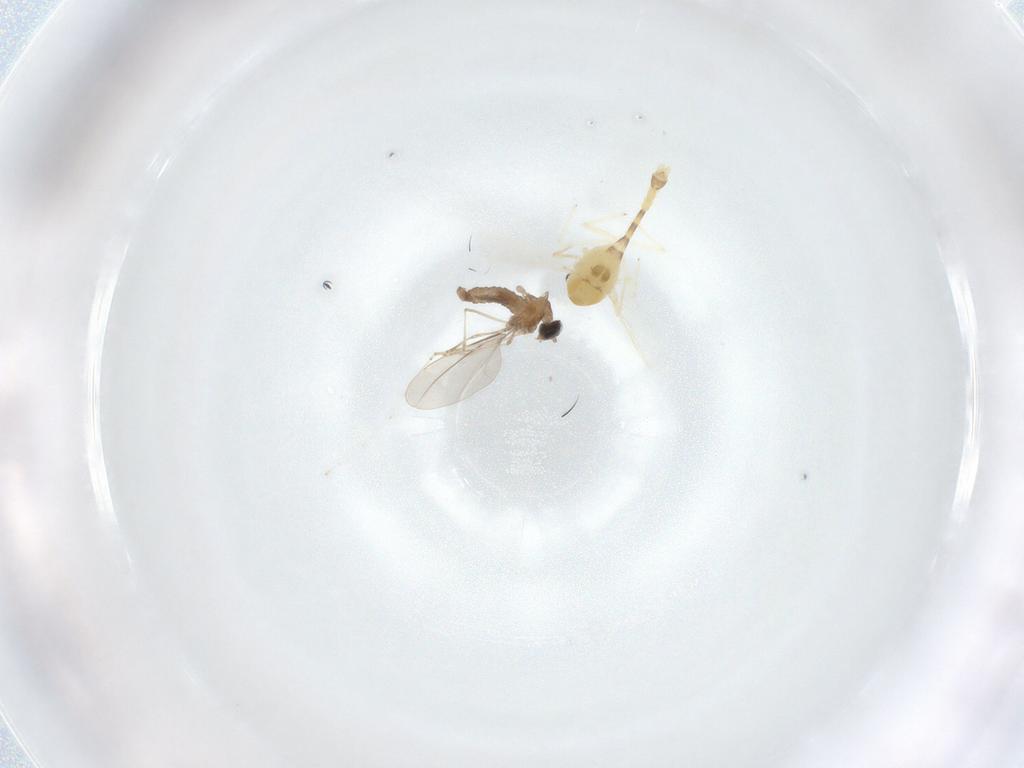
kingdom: Animalia
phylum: Arthropoda
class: Insecta
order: Diptera
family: Chironomidae
